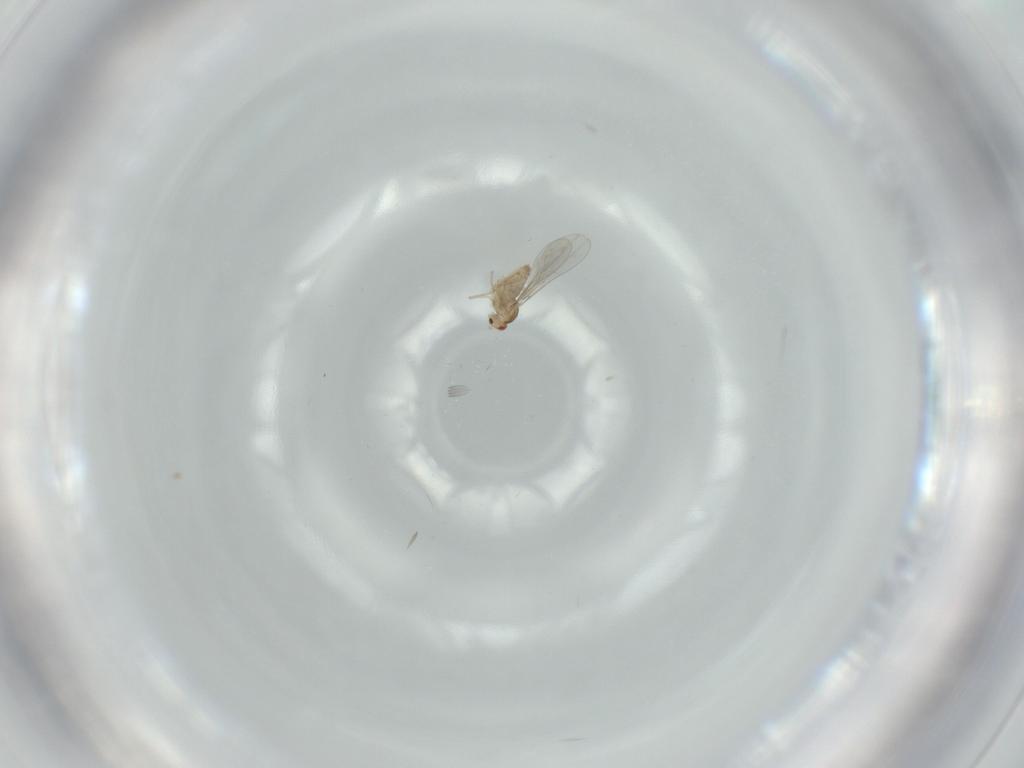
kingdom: Animalia
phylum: Arthropoda
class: Insecta
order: Diptera
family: Cecidomyiidae
